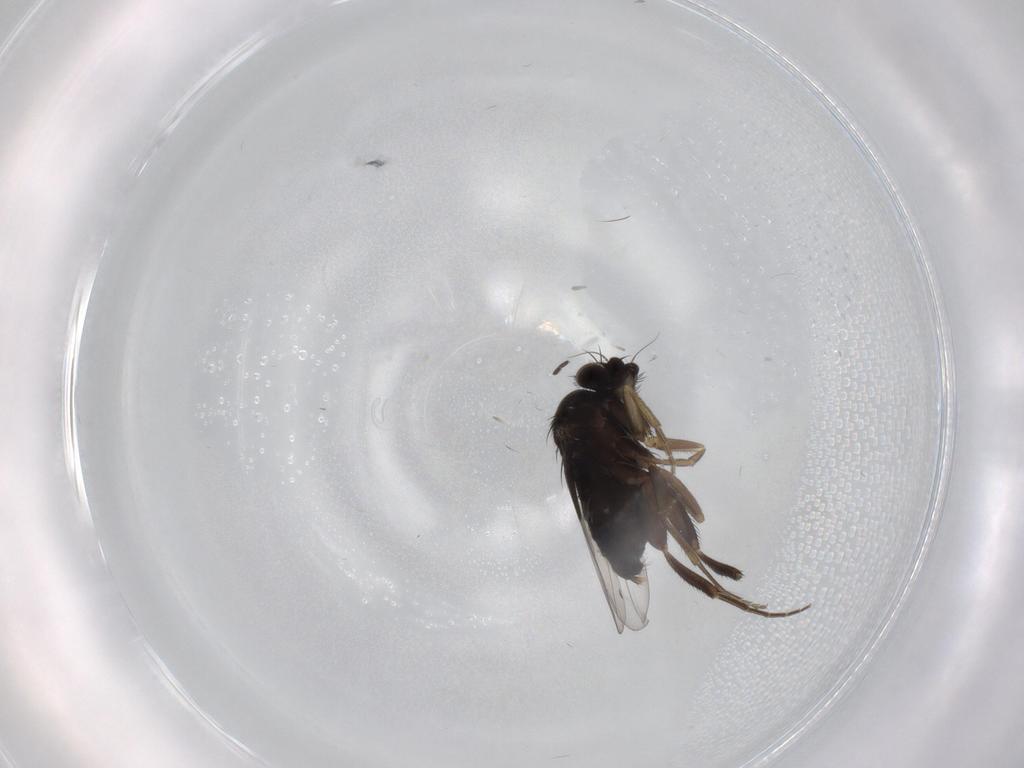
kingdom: Animalia
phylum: Arthropoda
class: Insecta
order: Diptera
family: Phoridae
